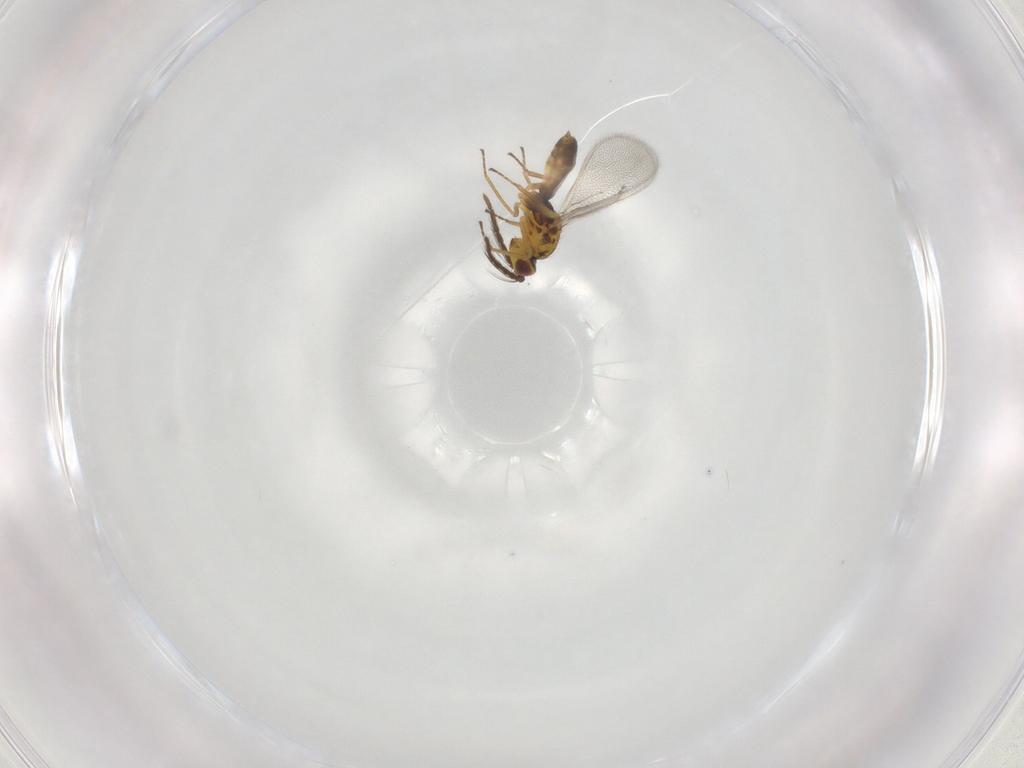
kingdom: Animalia
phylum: Arthropoda
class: Insecta
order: Hymenoptera
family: Eulophidae
